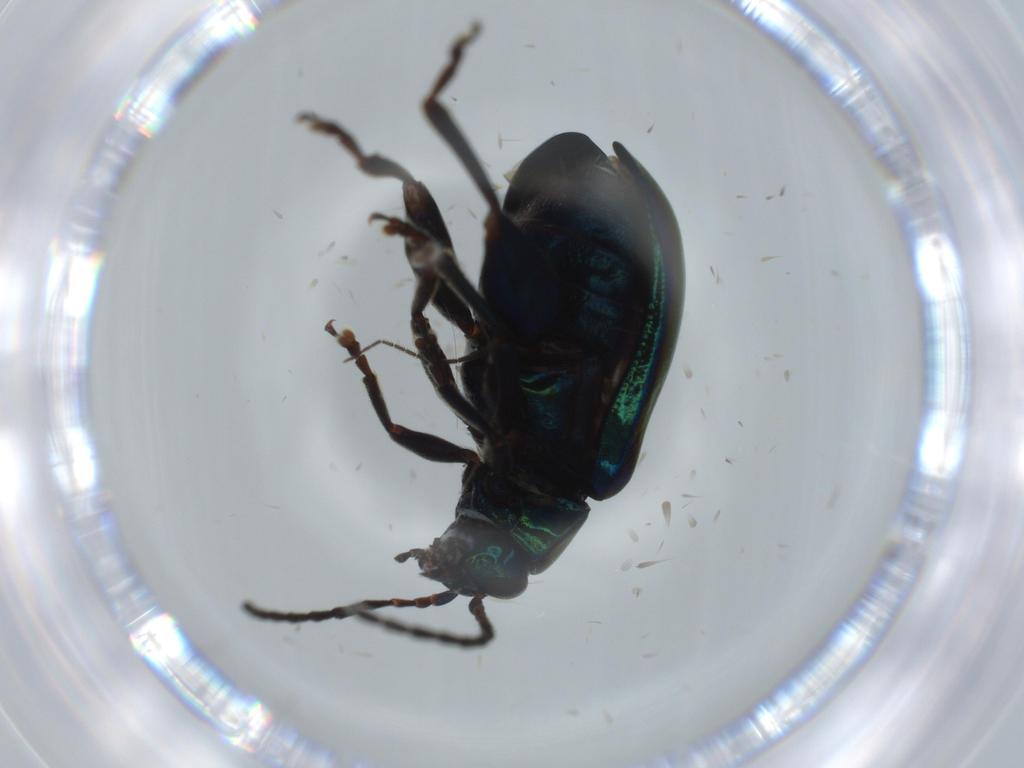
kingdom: Animalia
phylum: Arthropoda
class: Insecta
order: Coleoptera
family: Chrysomelidae
